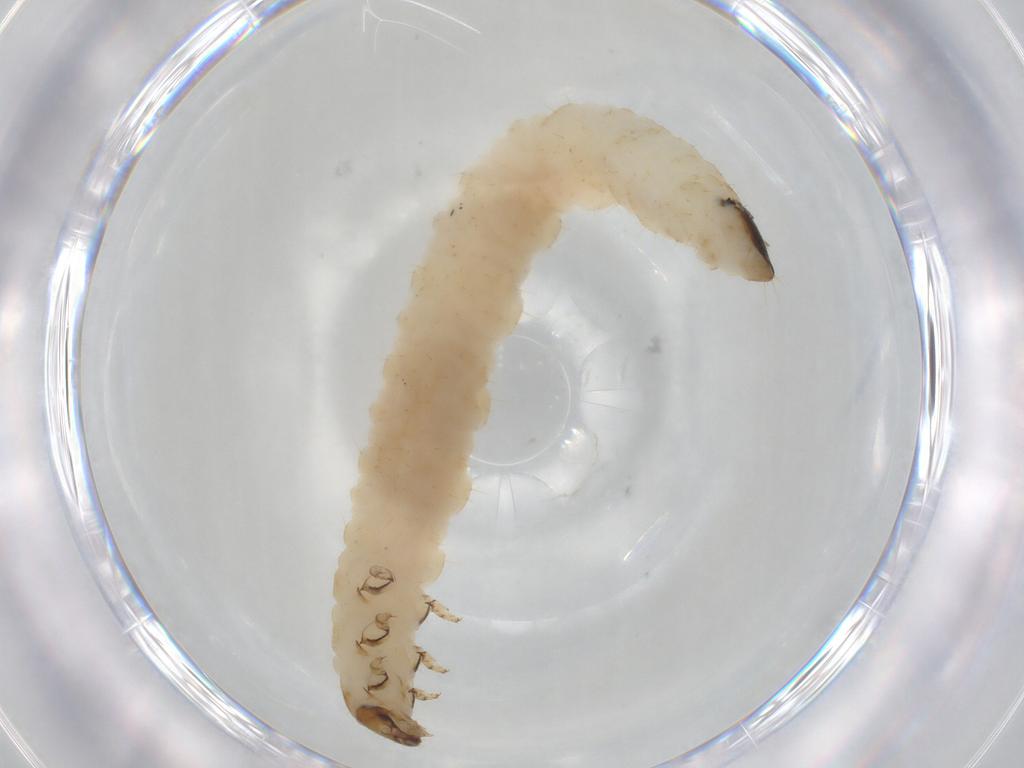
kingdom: Animalia
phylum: Arthropoda
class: Insecta
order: Coleoptera
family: Chrysomelidae
